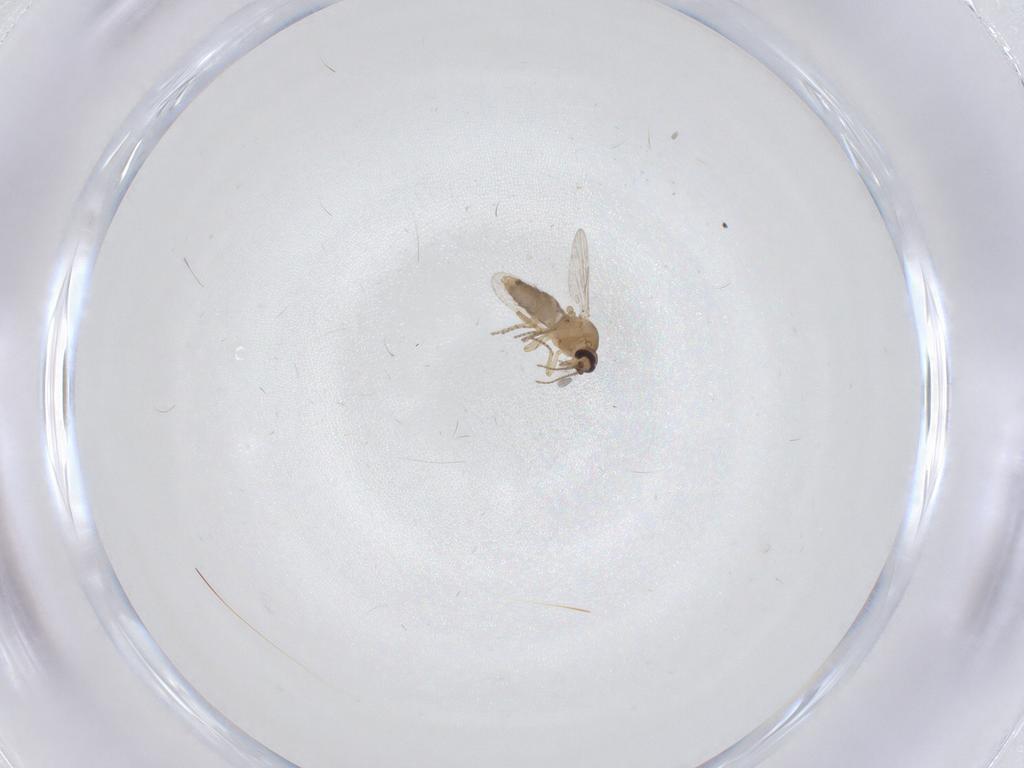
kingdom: Animalia
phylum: Arthropoda
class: Insecta
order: Diptera
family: Ceratopogonidae
